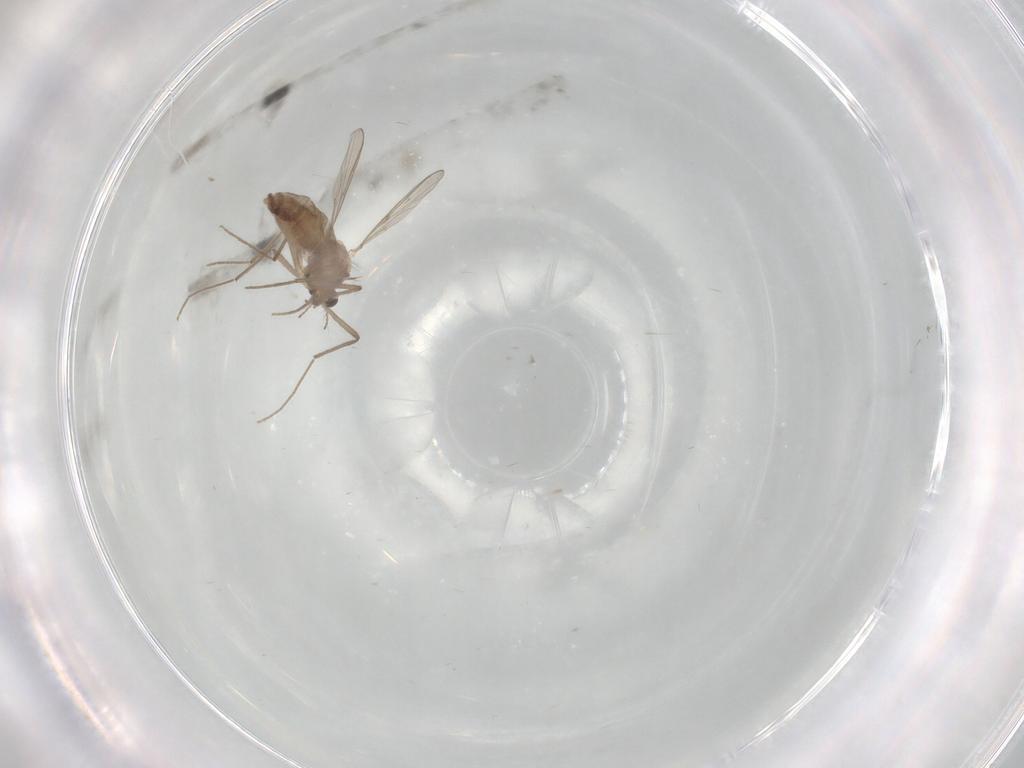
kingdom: Animalia
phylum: Arthropoda
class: Insecta
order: Diptera
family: Chironomidae
